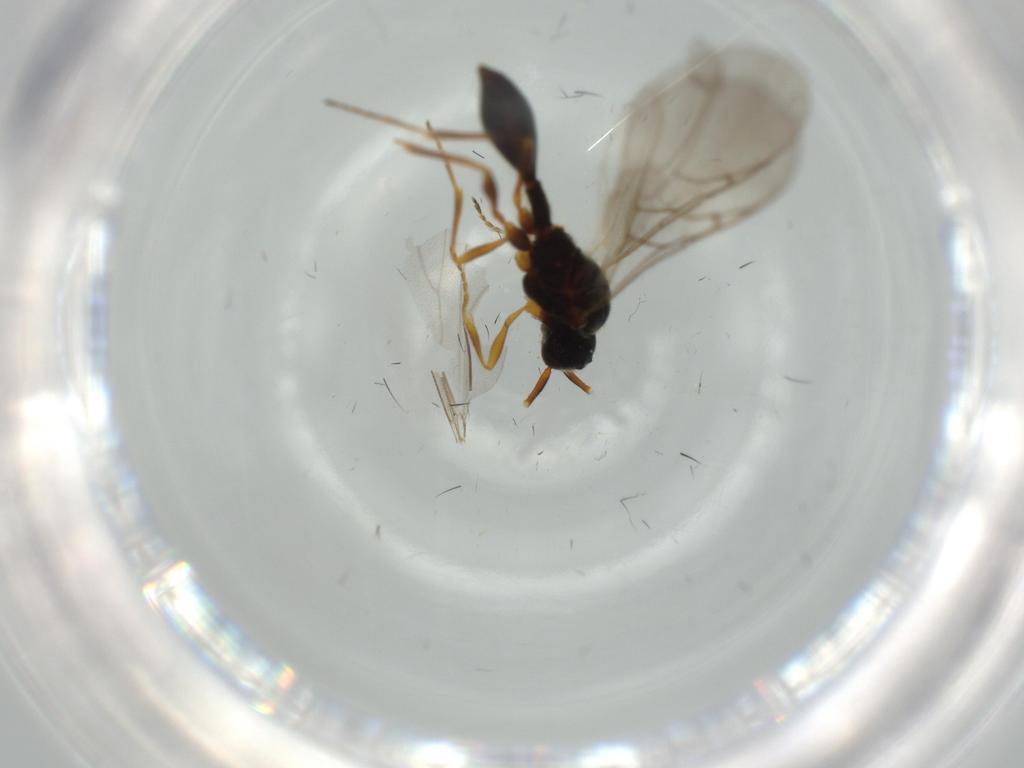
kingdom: Animalia
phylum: Arthropoda
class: Insecta
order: Hymenoptera
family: Diapriidae
